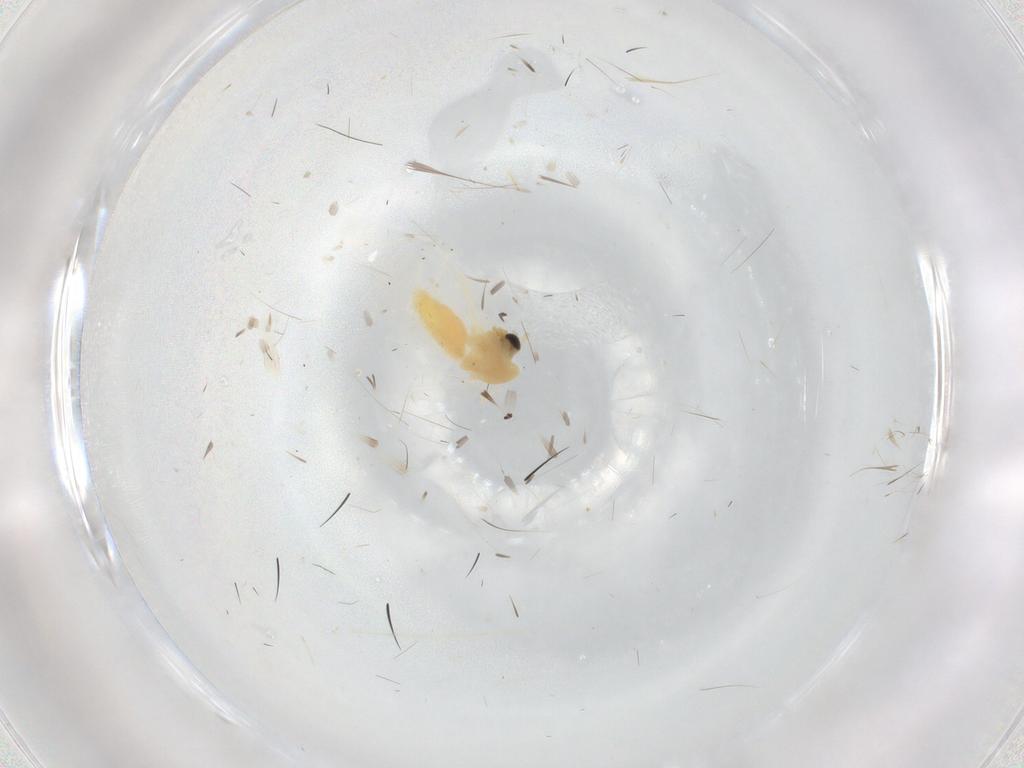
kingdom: Animalia
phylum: Arthropoda
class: Insecta
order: Diptera
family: Chironomidae
